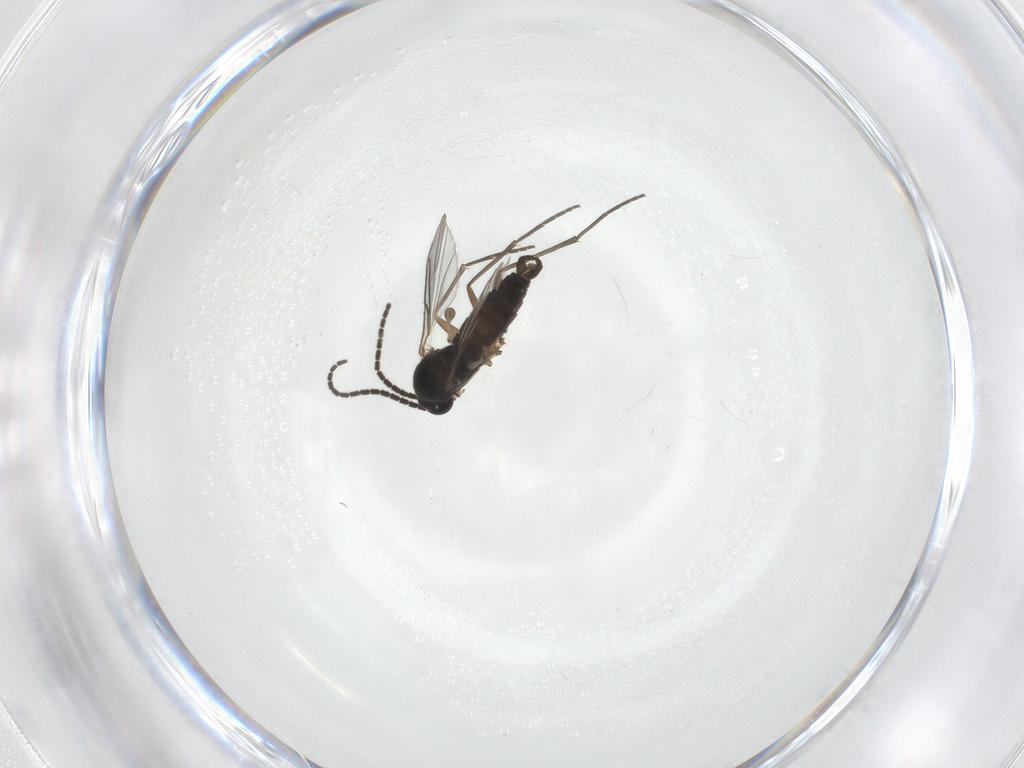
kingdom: Animalia
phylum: Arthropoda
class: Insecta
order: Diptera
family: Sciaridae
